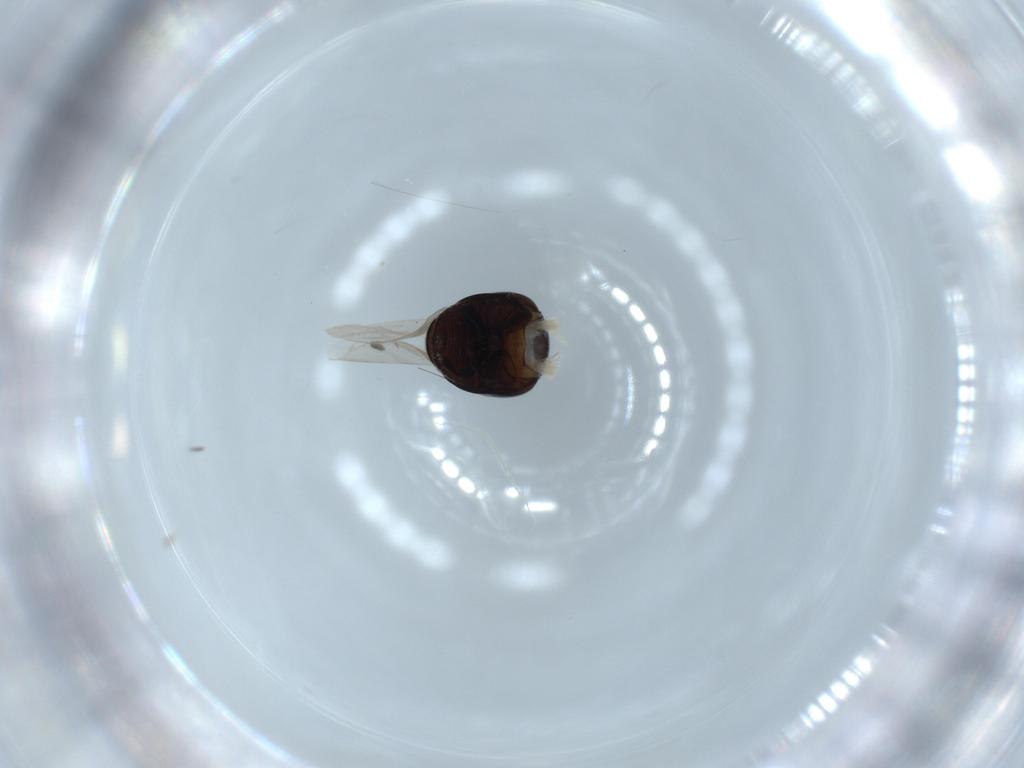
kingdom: Animalia
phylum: Arthropoda
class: Insecta
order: Coleoptera
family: Cybocephalidae
